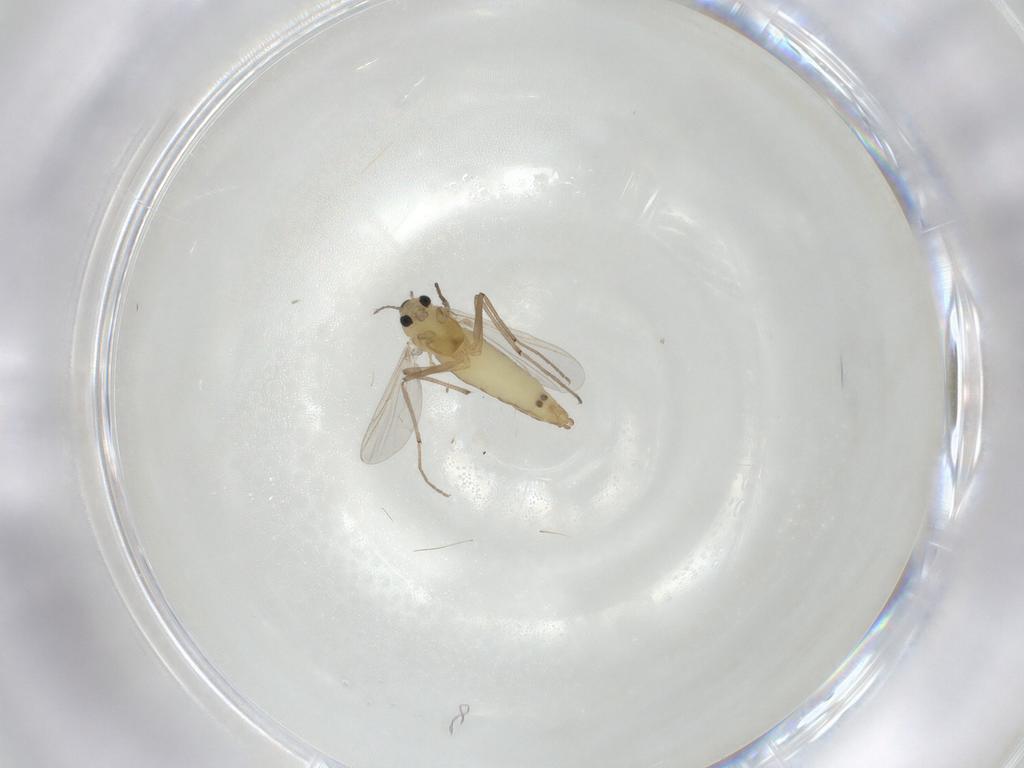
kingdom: Animalia
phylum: Arthropoda
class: Insecta
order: Diptera
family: Chironomidae
